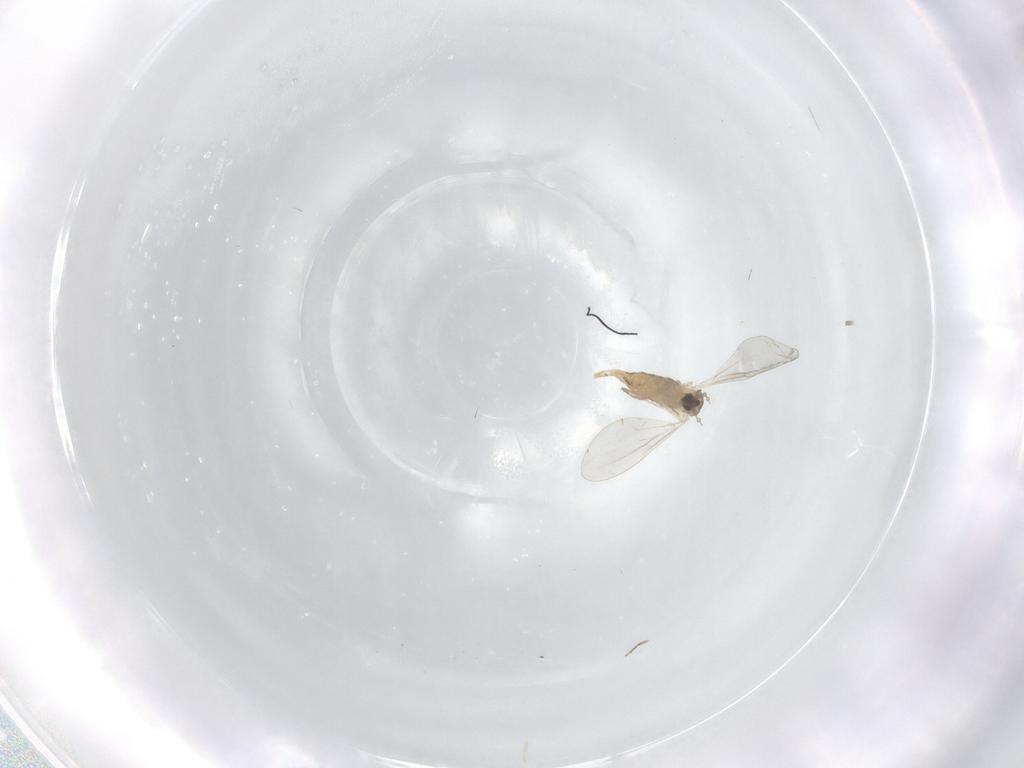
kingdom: Animalia
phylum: Arthropoda
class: Insecta
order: Diptera
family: Cecidomyiidae
